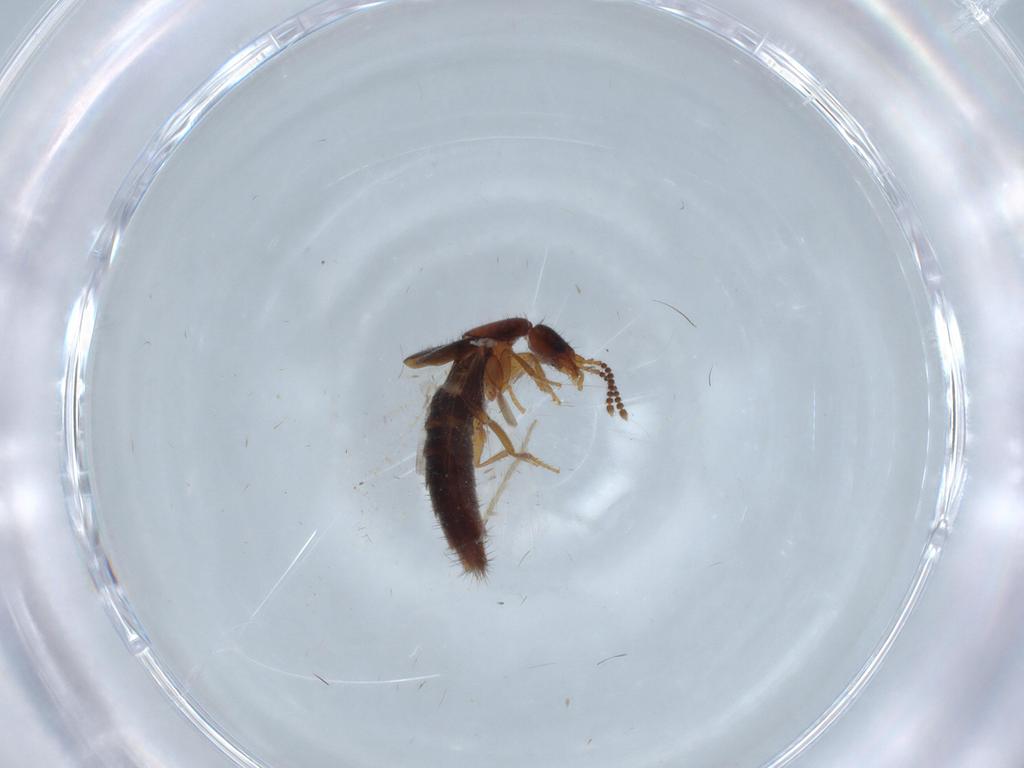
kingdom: Animalia
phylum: Arthropoda
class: Insecta
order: Coleoptera
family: Staphylinidae
